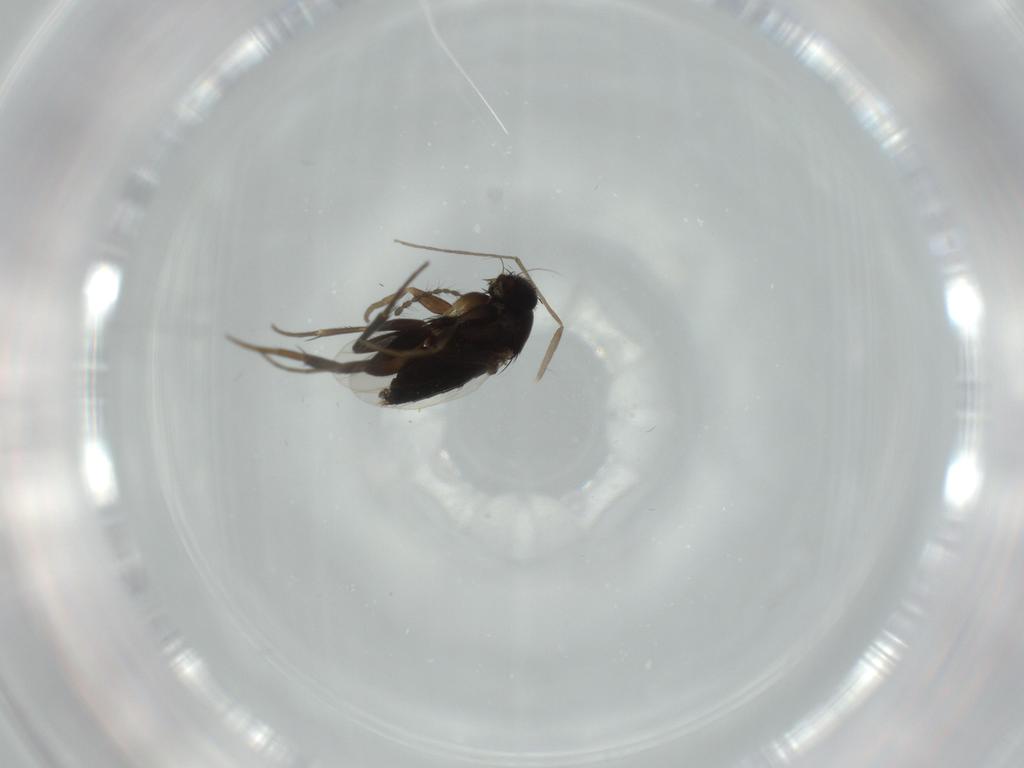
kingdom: Animalia
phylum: Arthropoda
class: Insecta
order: Diptera
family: Phoridae
